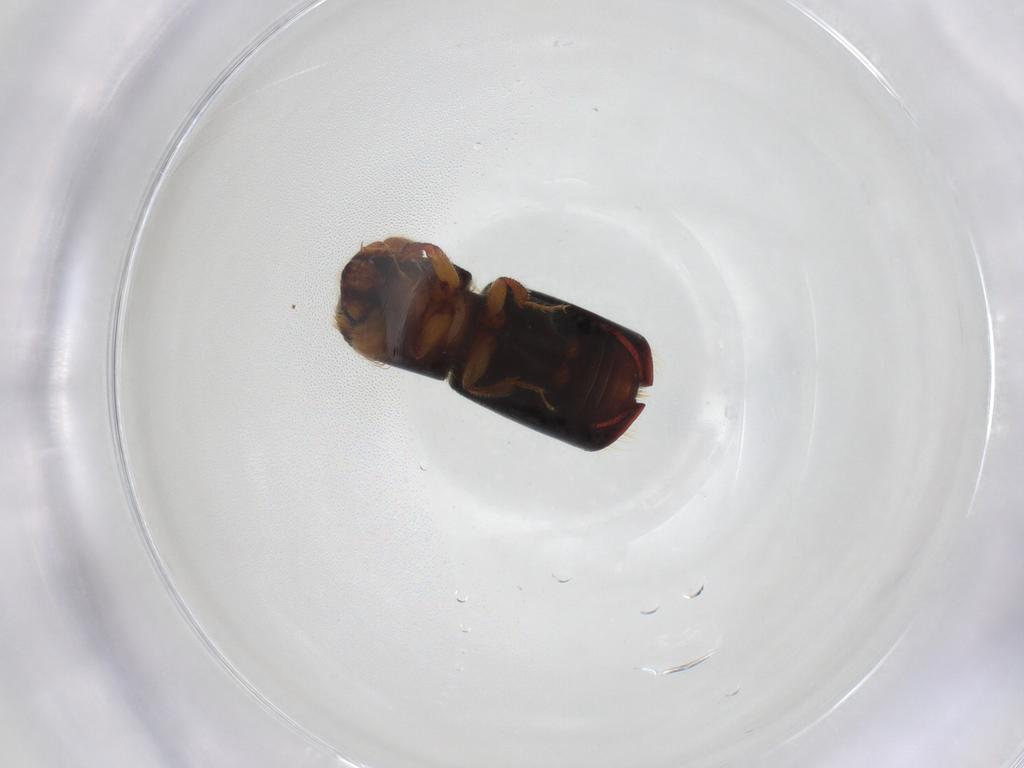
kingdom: Animalia
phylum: Arthropoda
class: Insecta
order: Coleoptera
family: Curculionidae
